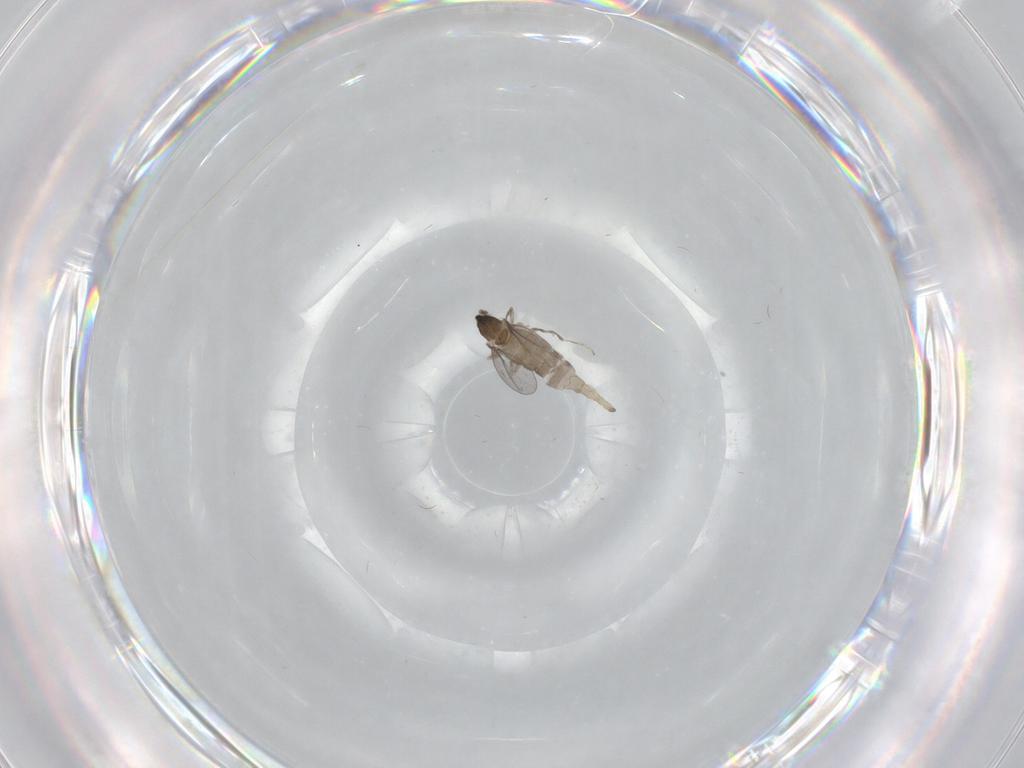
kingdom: Animalia
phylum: Arthropoda
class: Insecta
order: Diptera
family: Cecidomyiidae
